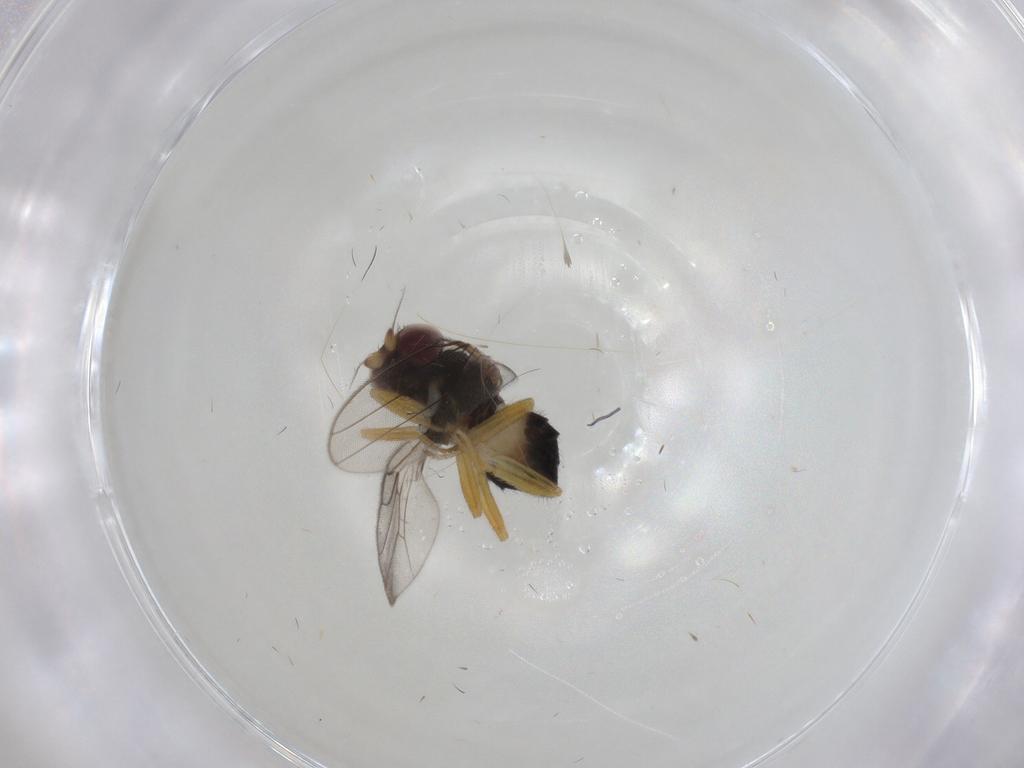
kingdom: Animalia
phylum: Arthropoda
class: Insecta
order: Diptera
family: Chloropidae
